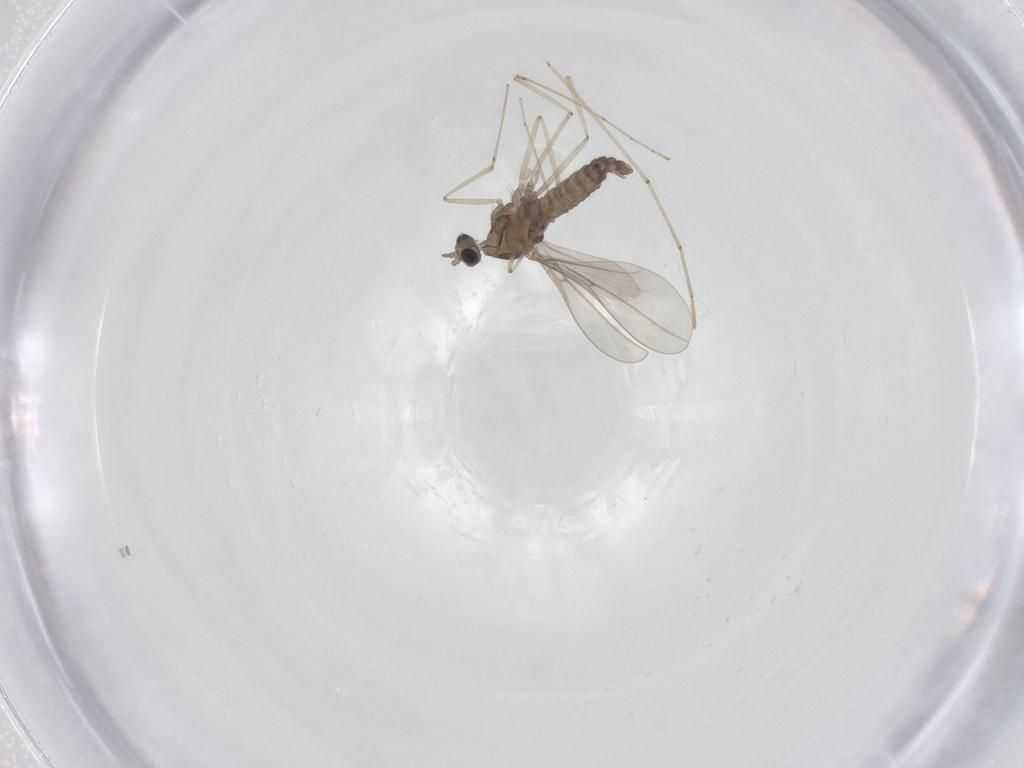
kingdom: Animalia
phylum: Arthropoda
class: Insecta
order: Diptera
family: Cecidomyiidae
